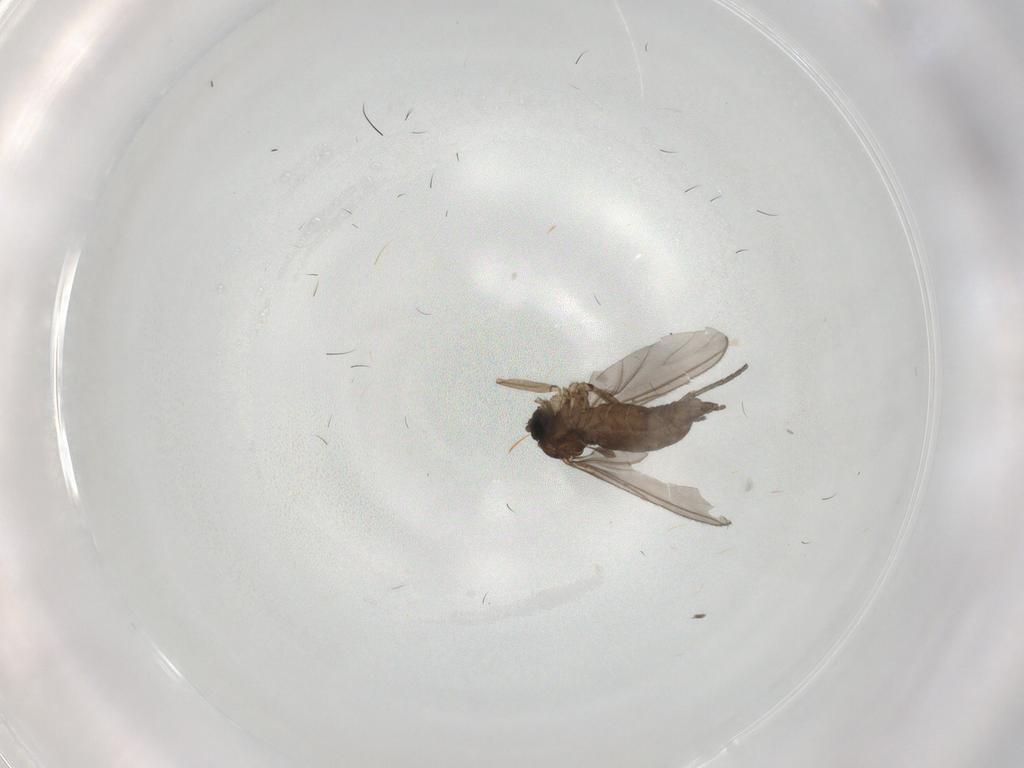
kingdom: Animalia
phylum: Arthropoda
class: Insecta
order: Diptera
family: Sciaridae
